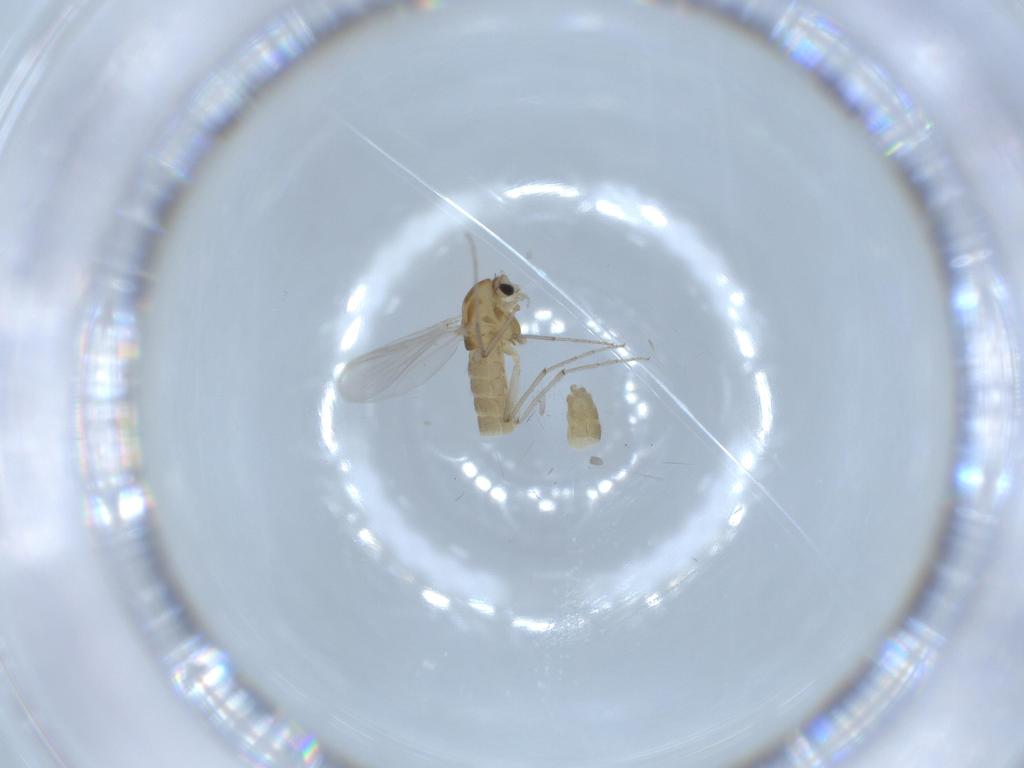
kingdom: Animalia
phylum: Arthropoda
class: Insecta
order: Diptera
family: Chironomidae
